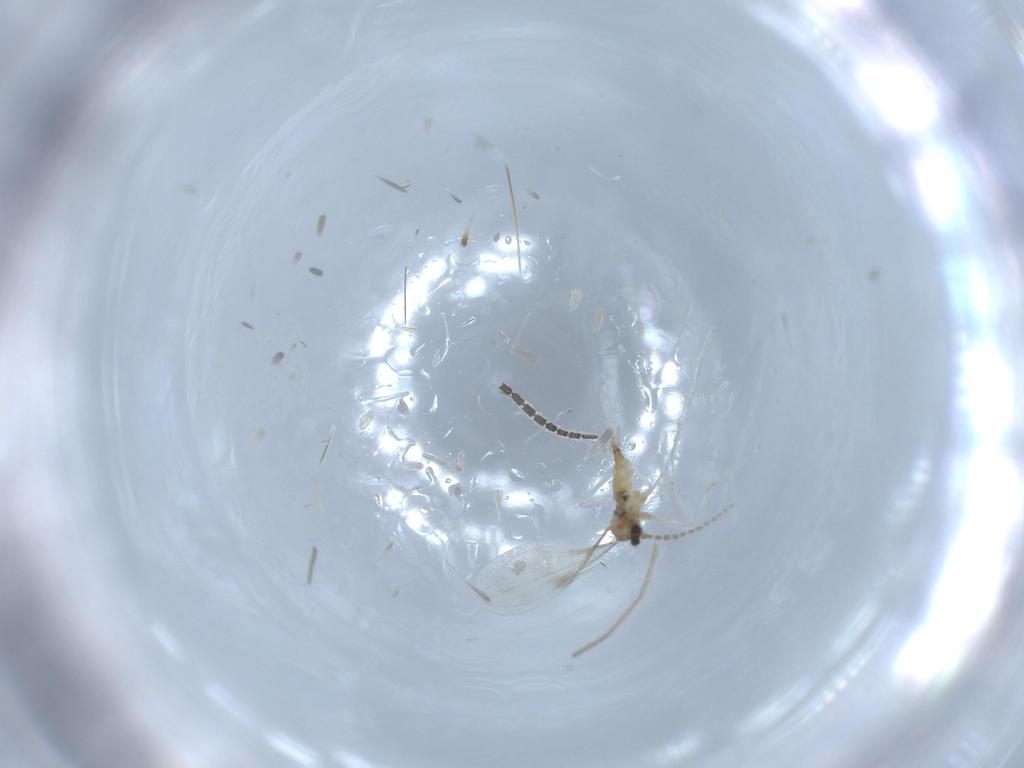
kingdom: Animalia
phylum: Arthropoda
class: Insecta
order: Diptera
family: Cecidomyiidae
